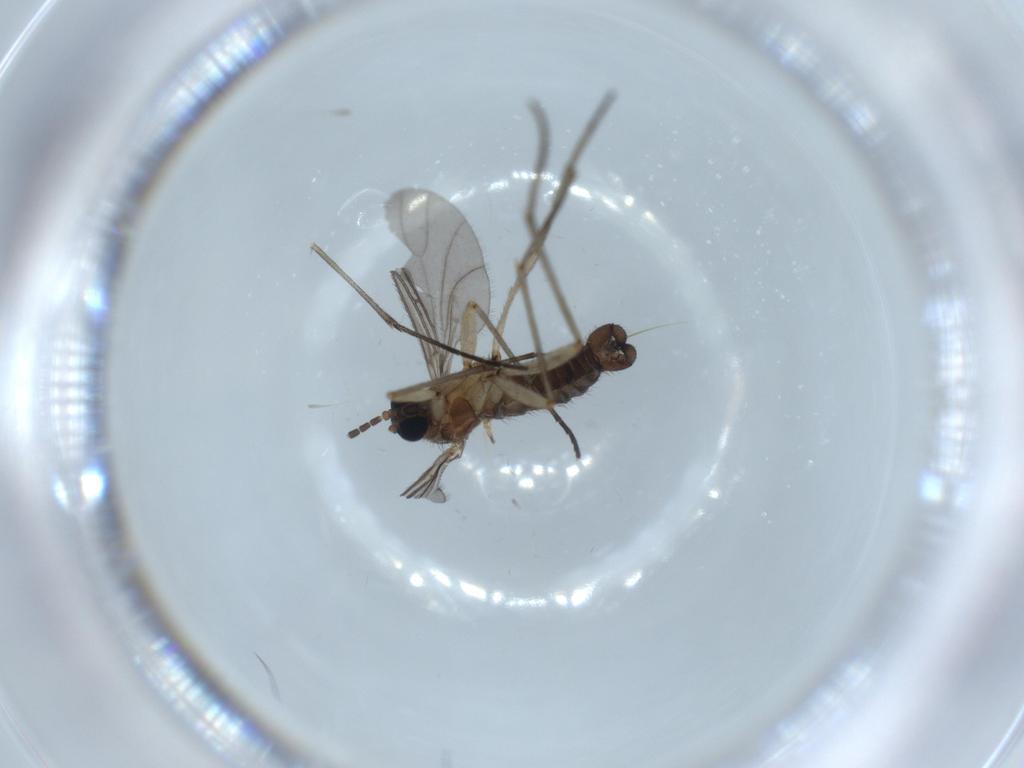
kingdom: Animalia
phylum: Arthropoda
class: Insecta
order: Diptera
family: Sciaridae
